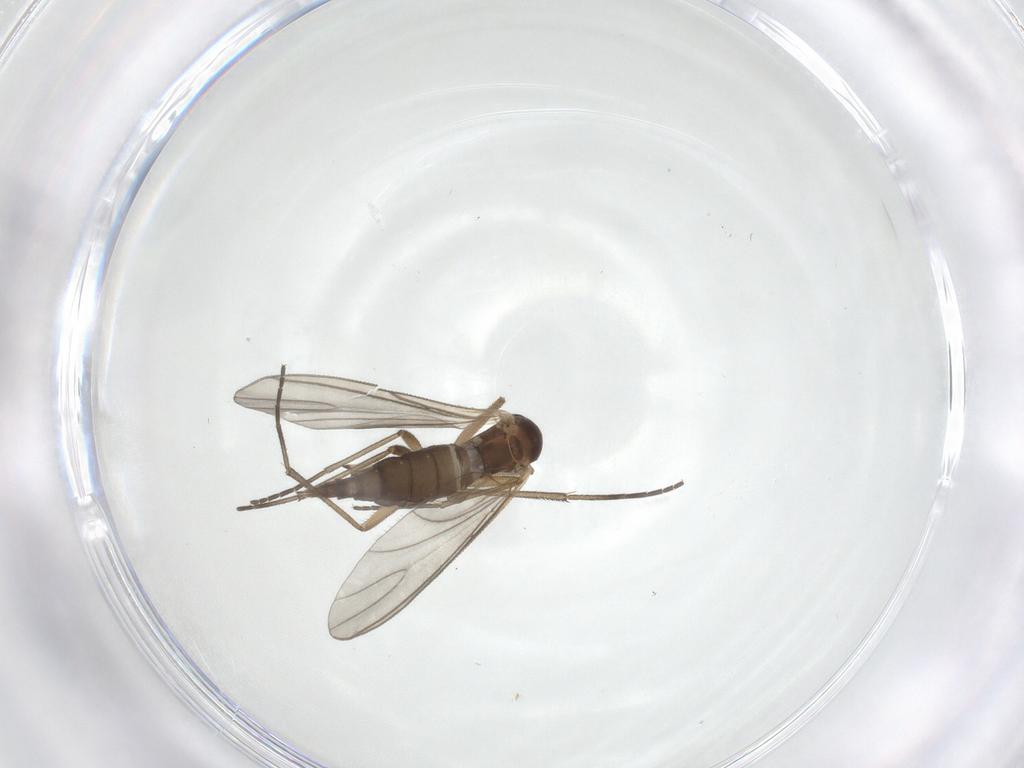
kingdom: Animalia
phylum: Arthropoda
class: Insecta
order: Diptera
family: Sciaridae
